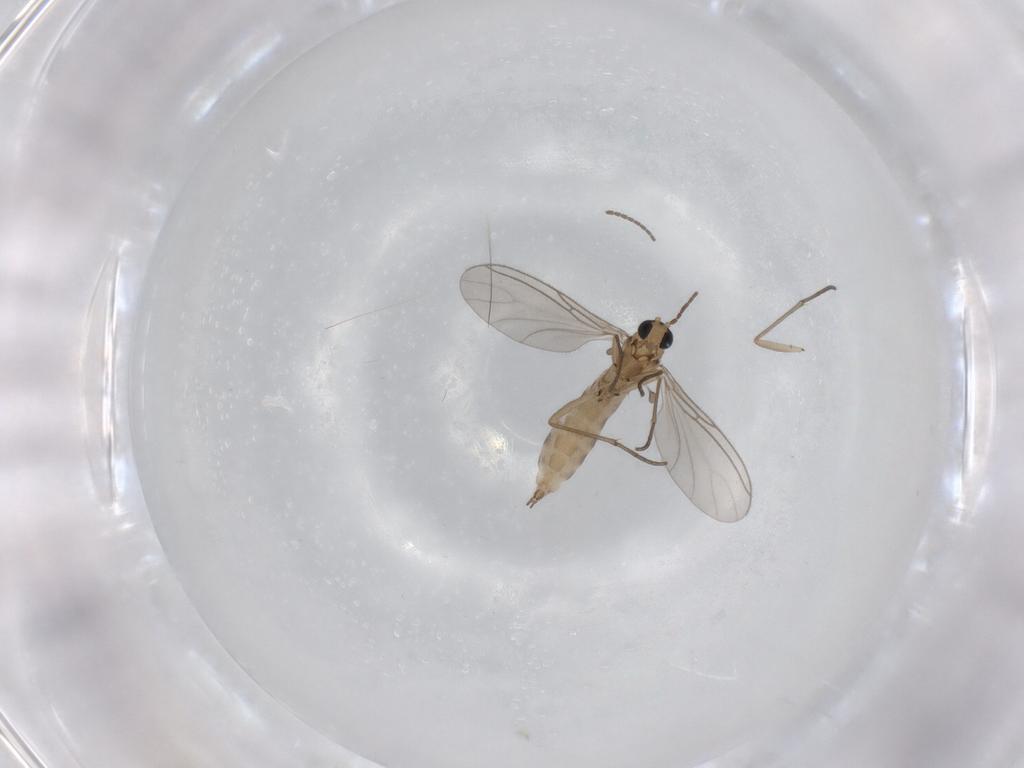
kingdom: Animalia
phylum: Arthropoda
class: Insecta
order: Diptera
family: Sciaridae
